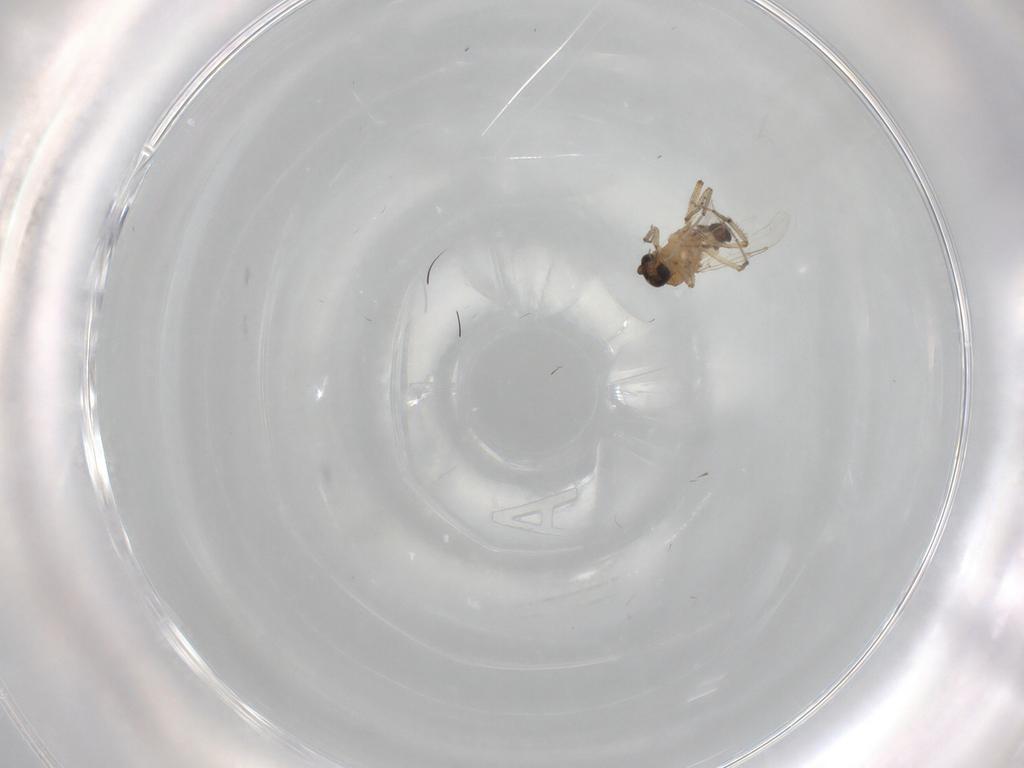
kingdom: Animalia
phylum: Arthropoda
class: Insecta
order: Diptera
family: Ceratopogonidae
